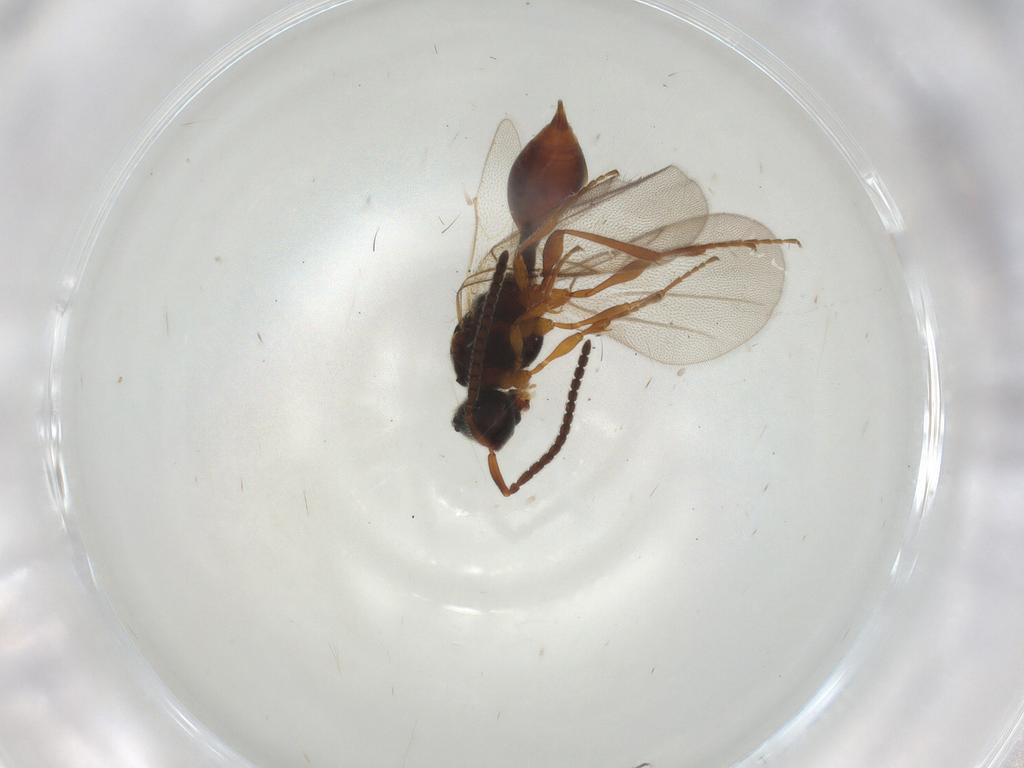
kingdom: Animalia
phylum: Arthropoda
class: Insecta
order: Hymenoptera
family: Diapriidae
